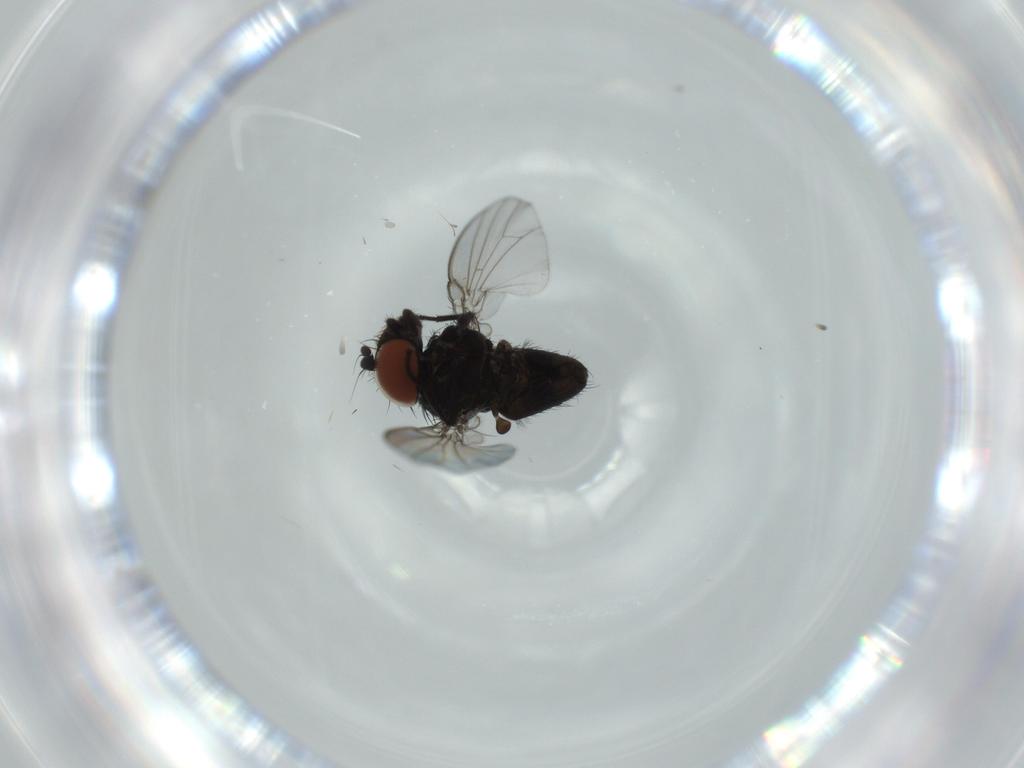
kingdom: Animalia
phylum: Arthropoda
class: Insecta
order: Diptera
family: Milichiidae
